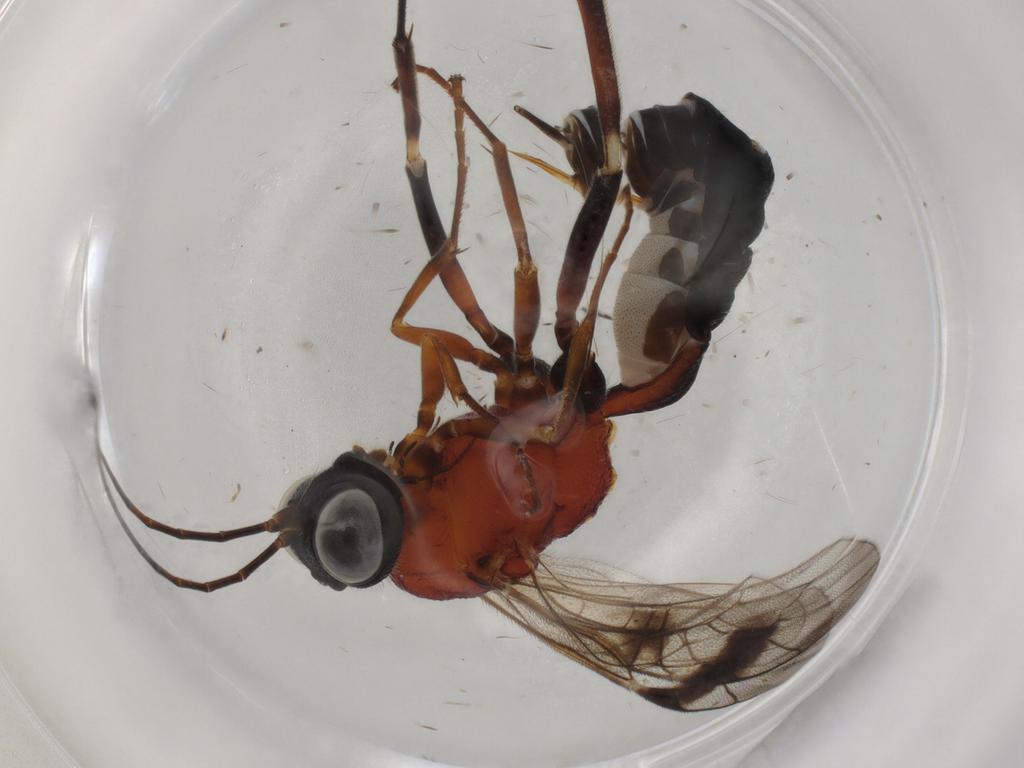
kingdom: Animalia
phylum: Arthropoda
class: Insecta
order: Hymenoptera
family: Ichneumonidae
